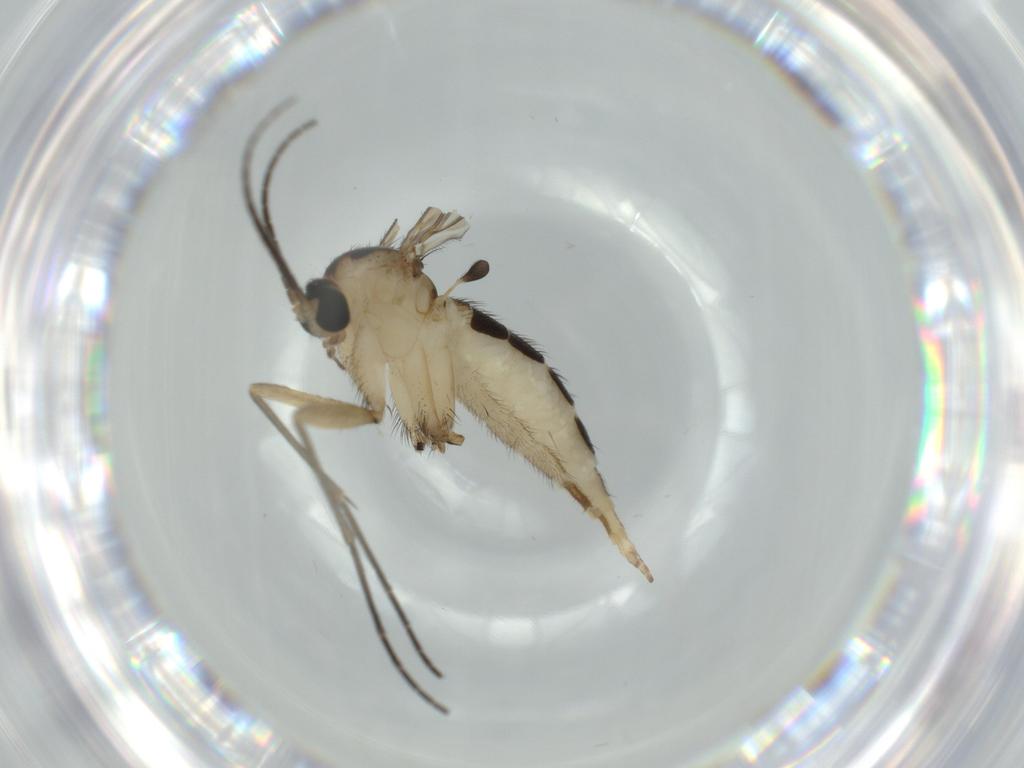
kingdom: Animalia
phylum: Arthropoda
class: Insecta
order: Diptera
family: Sciaridae
